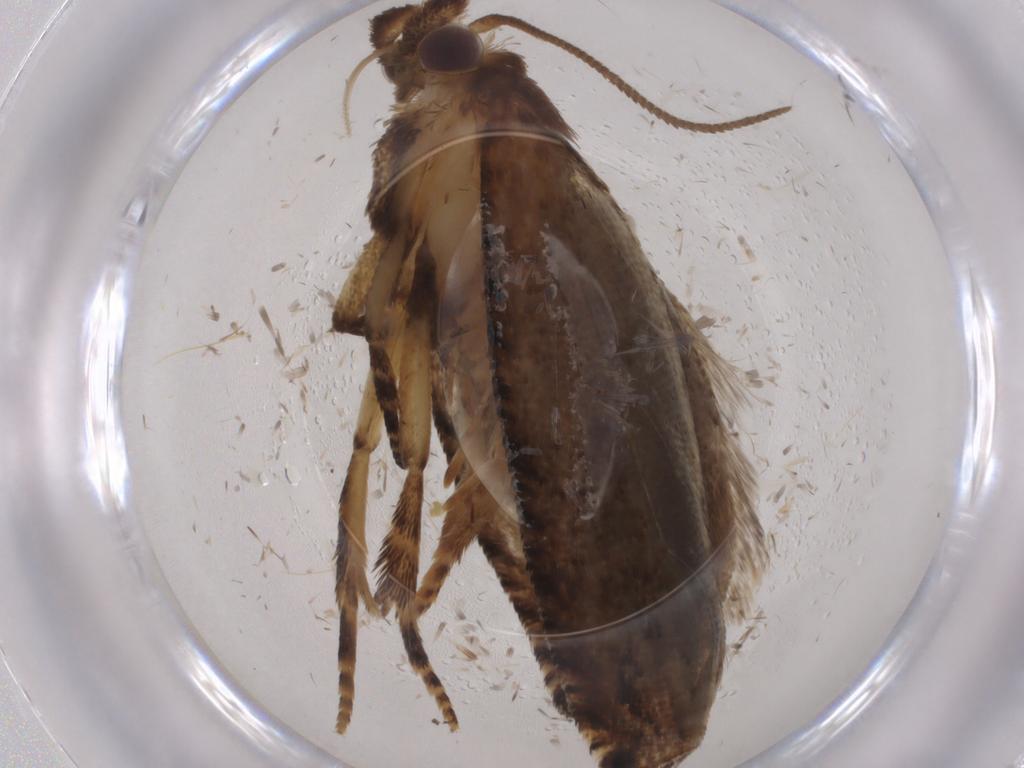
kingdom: Animalia
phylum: Arthropoda
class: Insecta
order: Lepidoptera
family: Tortricidae
